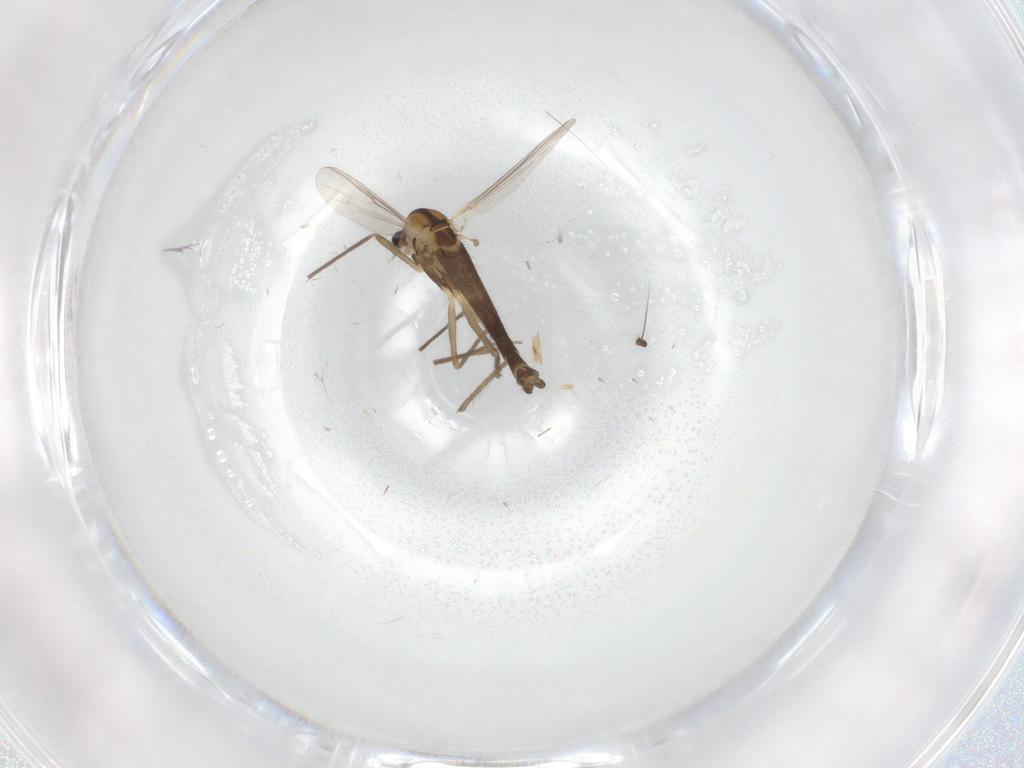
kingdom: Animalia
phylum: Arthropoda
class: Insecta
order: Diptera
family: Chironomidae
